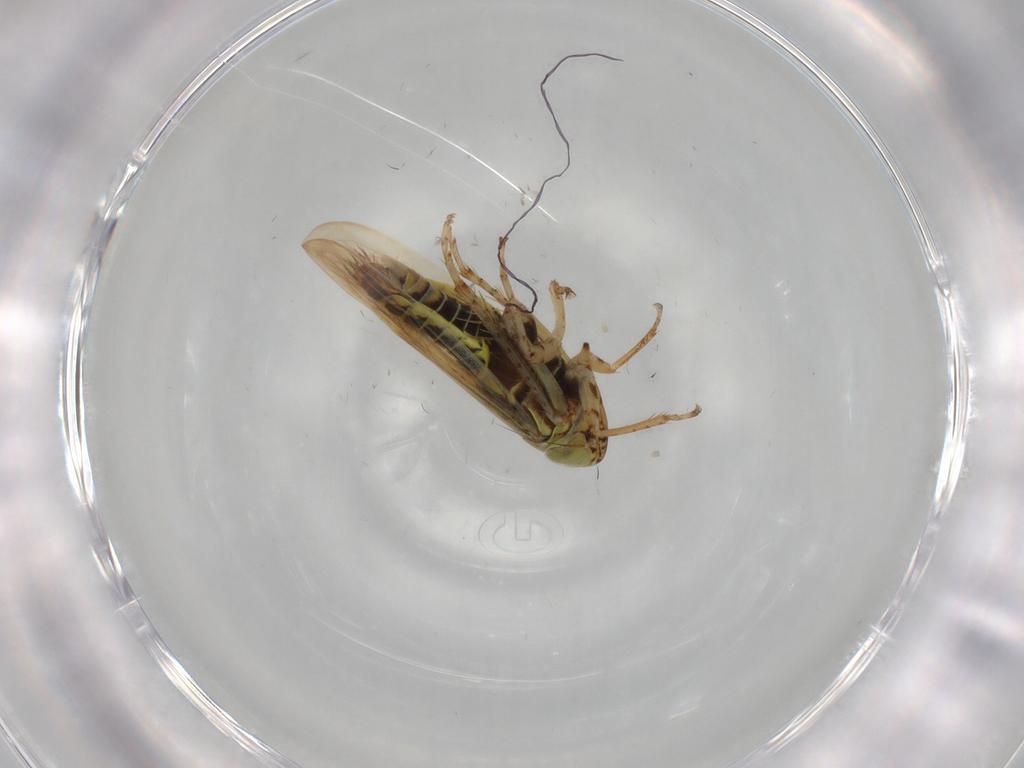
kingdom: Animalia
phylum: Arthropoda
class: Insecta
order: Hemiptera
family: Cicadellidae
